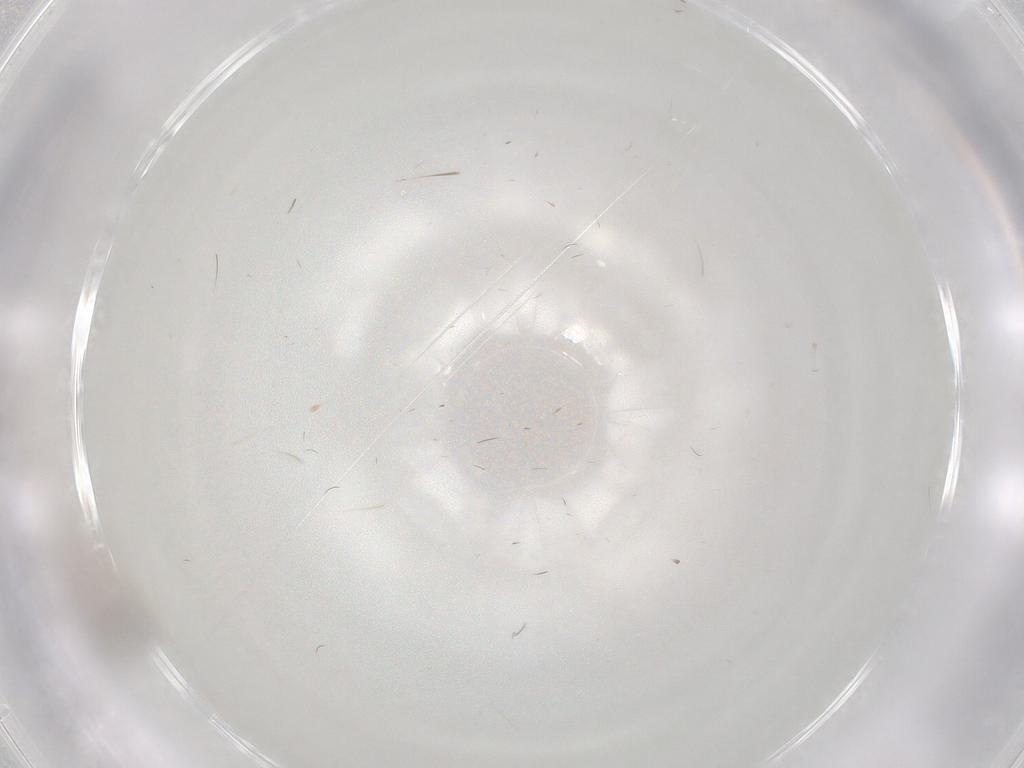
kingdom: Animalia
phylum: Arthropoda
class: Insecta
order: Diptera
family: Cecidomyiidae
